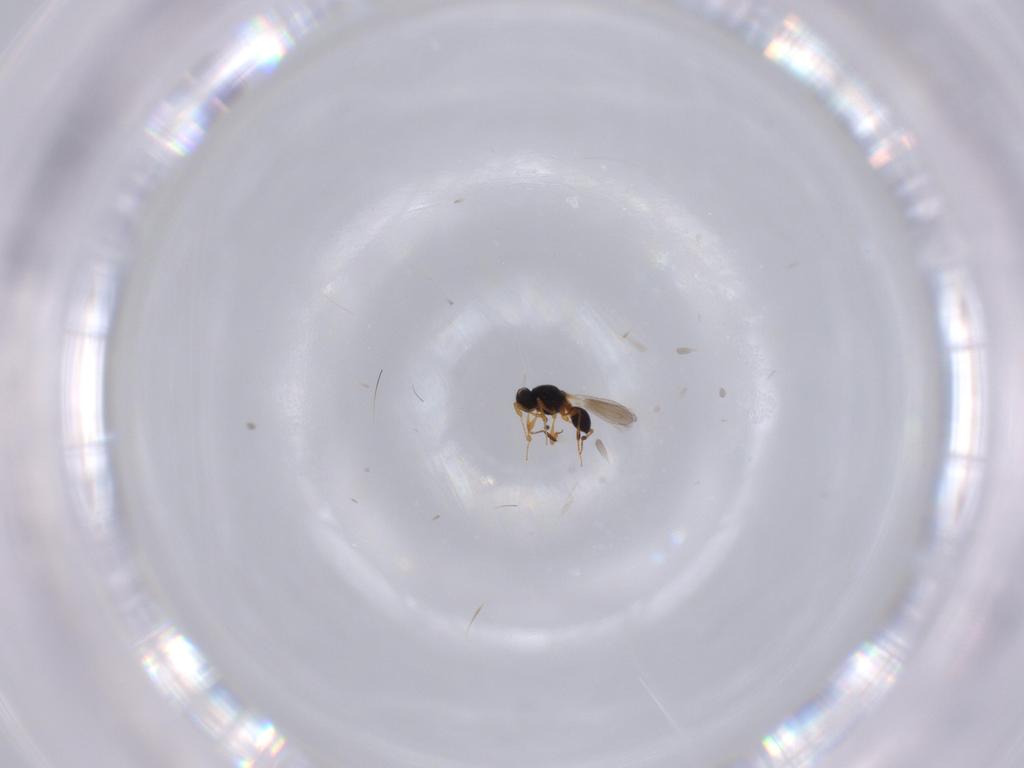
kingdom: Animalia
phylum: Arthropoda
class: Insecta
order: Hymenoptera
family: Platygastridae
